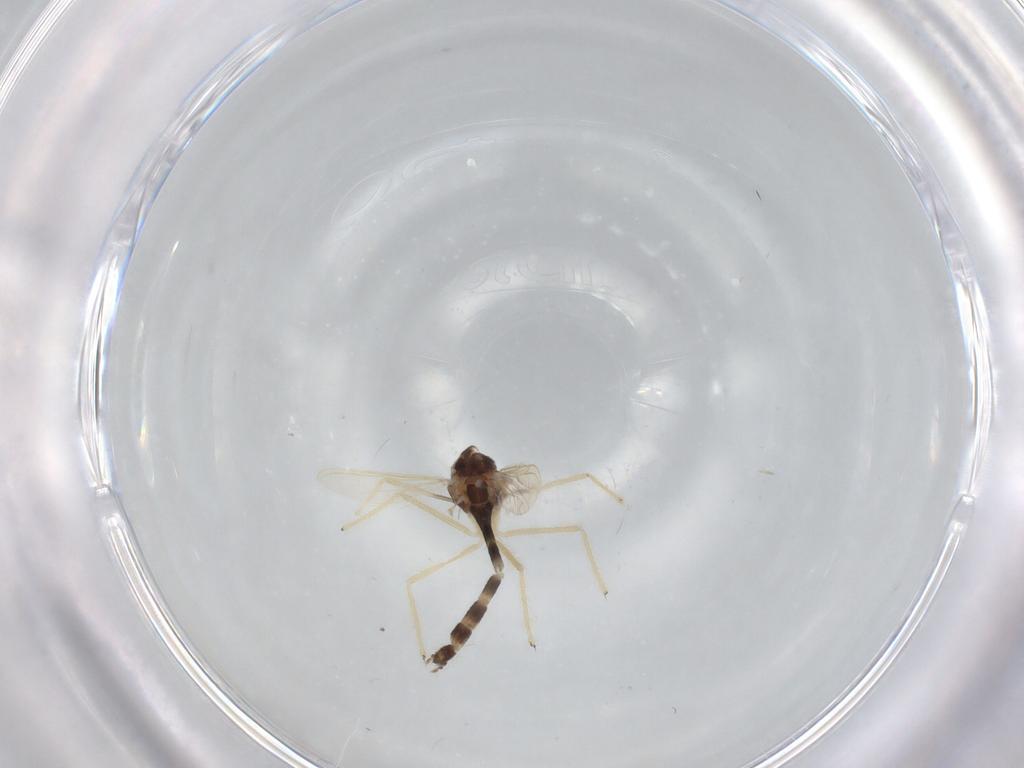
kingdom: Animalia
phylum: Arthropoda
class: Insecta
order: Diptera
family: Chironomidae
